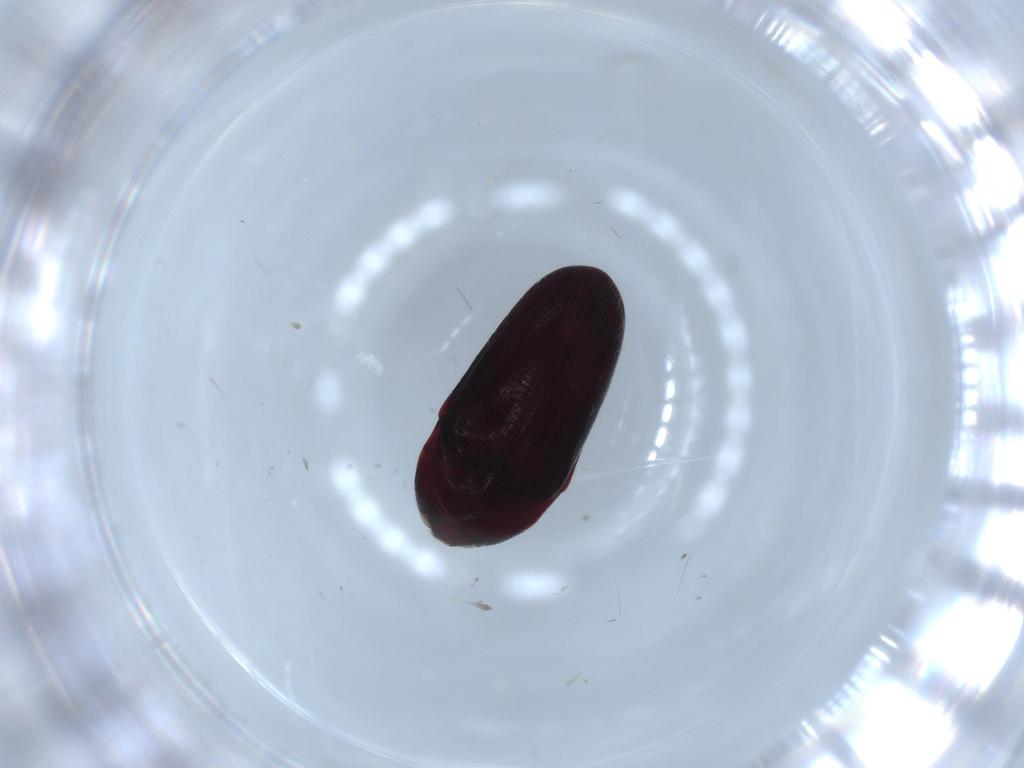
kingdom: Animalia
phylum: Arthropoda
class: Insecta
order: Coleoptera
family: Throscidae
